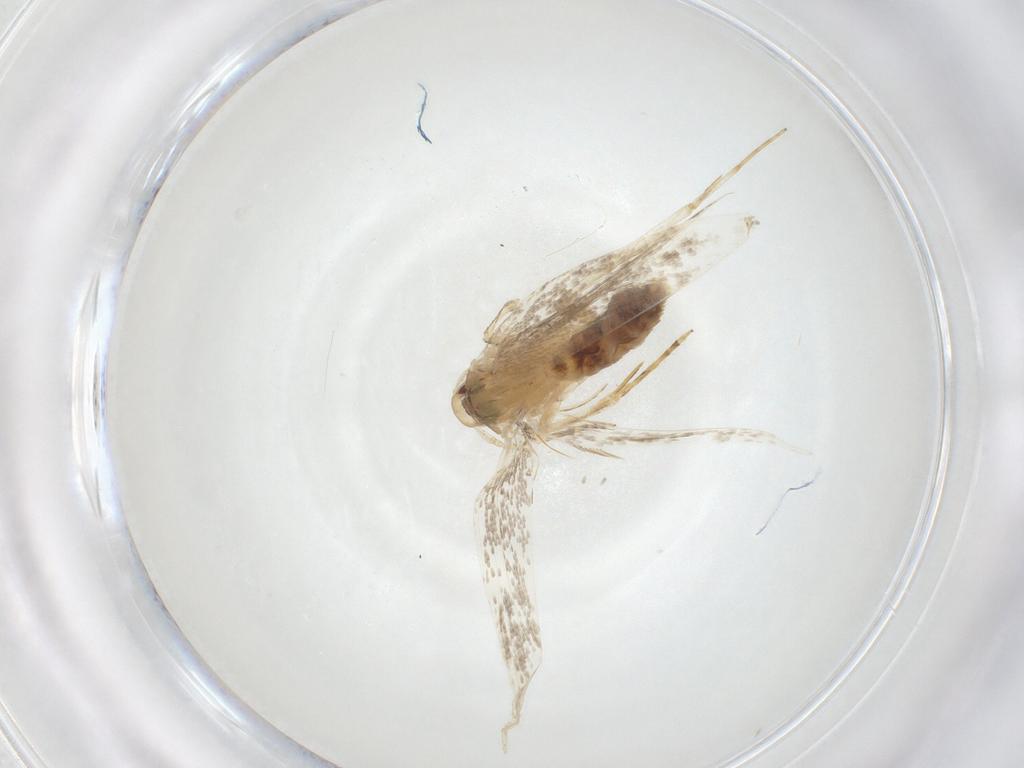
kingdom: Animalia
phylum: Arthropoda
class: Insecta
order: Lepidoptera
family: Cosmopterigidae
